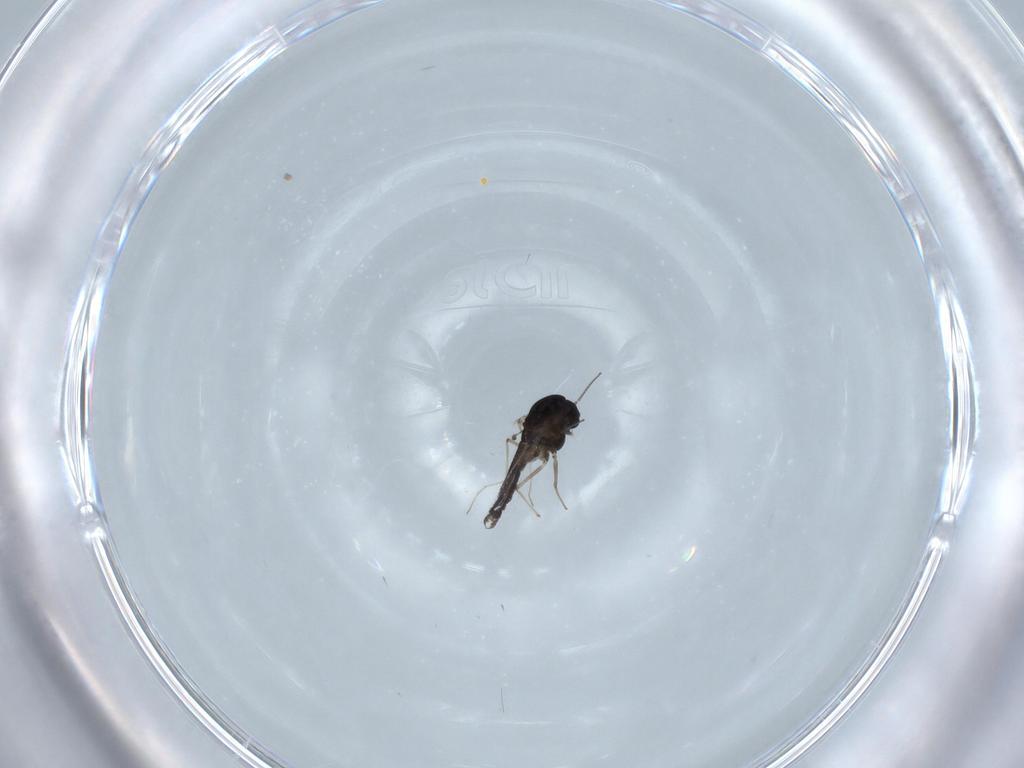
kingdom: Animalia
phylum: Arthropoda
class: Insecta
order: Diptera
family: Chironomidae
